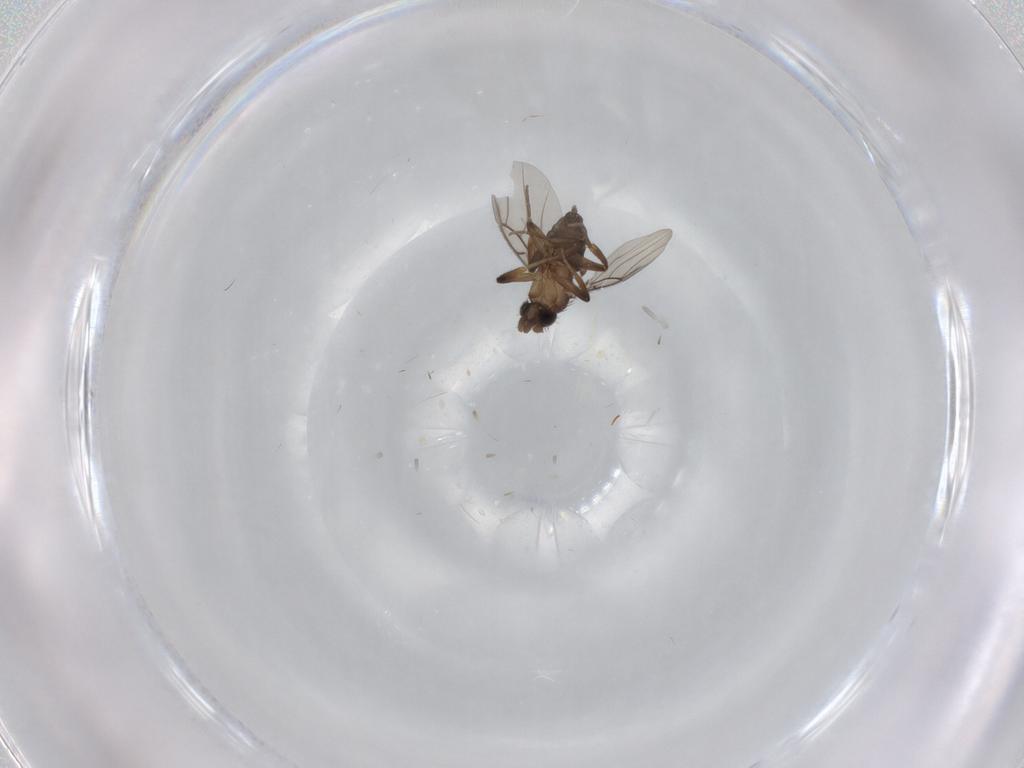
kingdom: Animalia
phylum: Arthropoda
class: Insecta
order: Diptera
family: Phoridae
